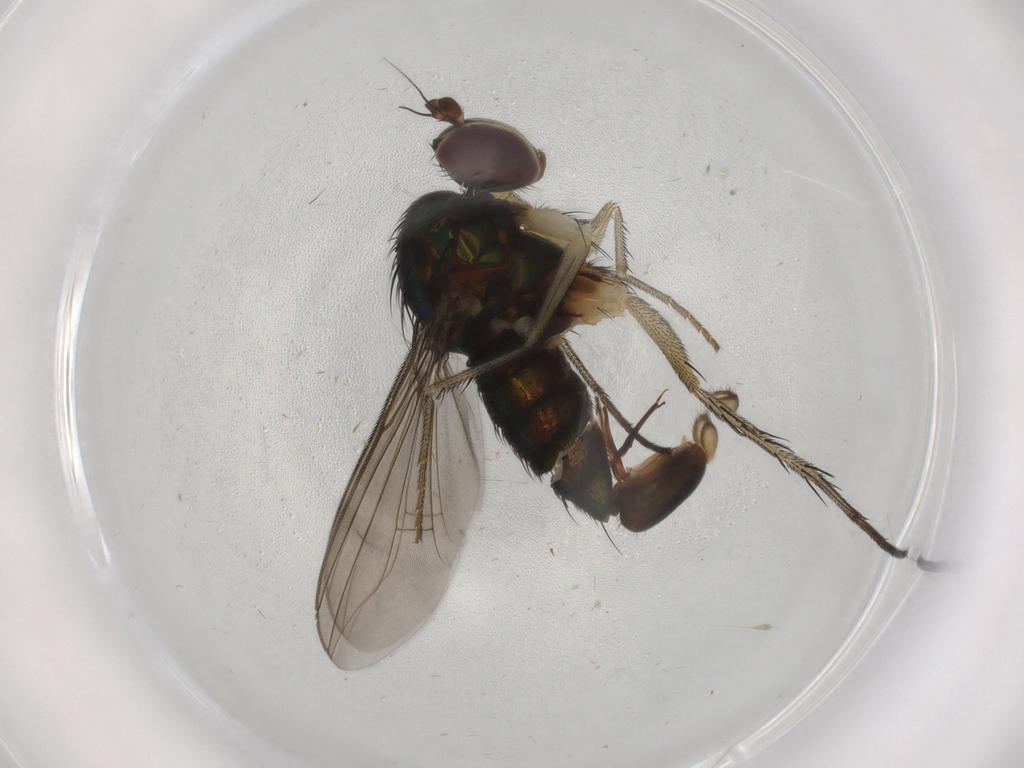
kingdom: Animalia
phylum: Arthropoda
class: Insecta
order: Diptera
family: Dolichopodidae
